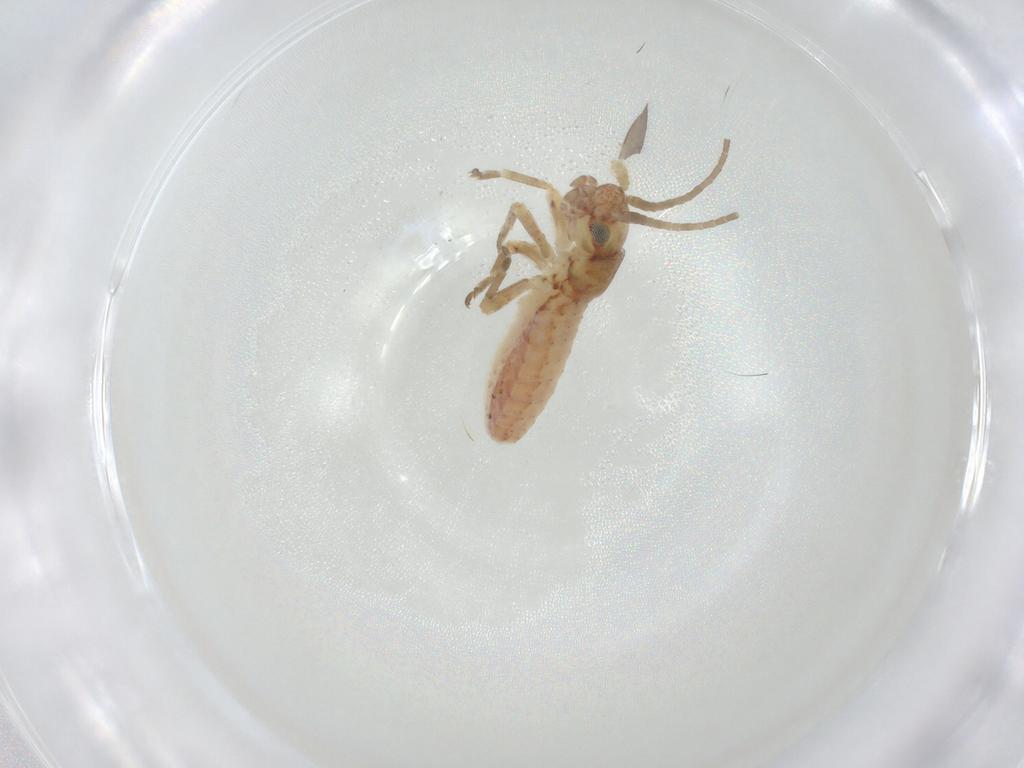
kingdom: Animalia
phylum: Arthropoda
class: Insecta
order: Orthoptera
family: Mogoplistidae
